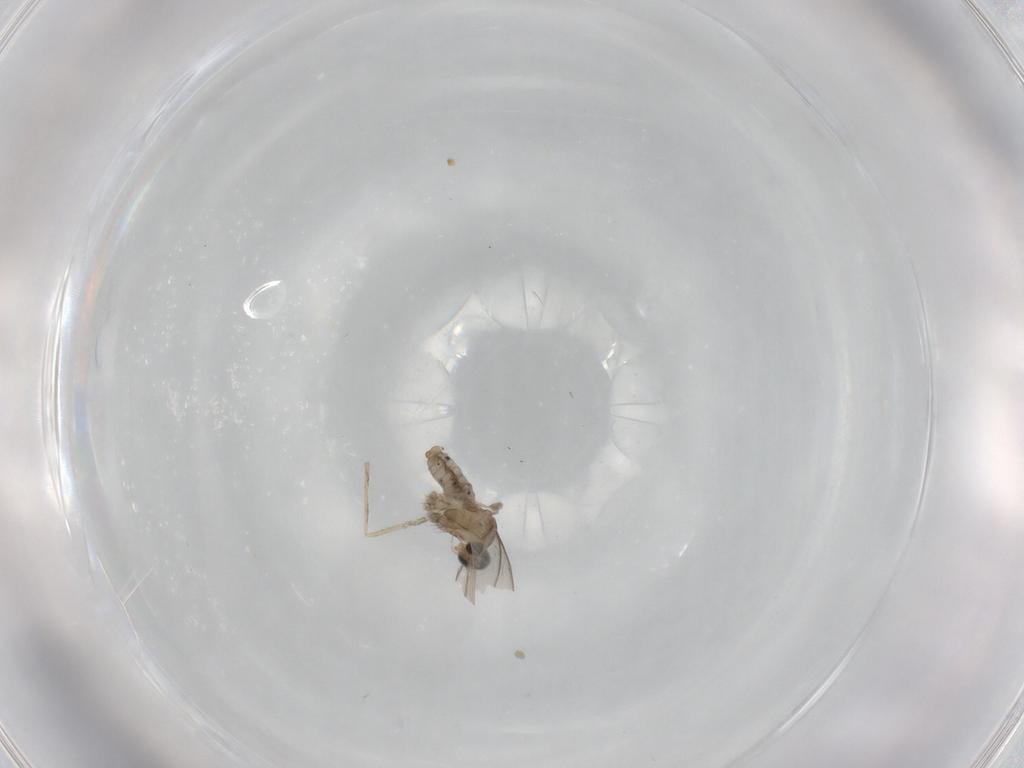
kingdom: Animalia
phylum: Arthropoda
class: Insecta
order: Diptera
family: Cecidomyiidae
